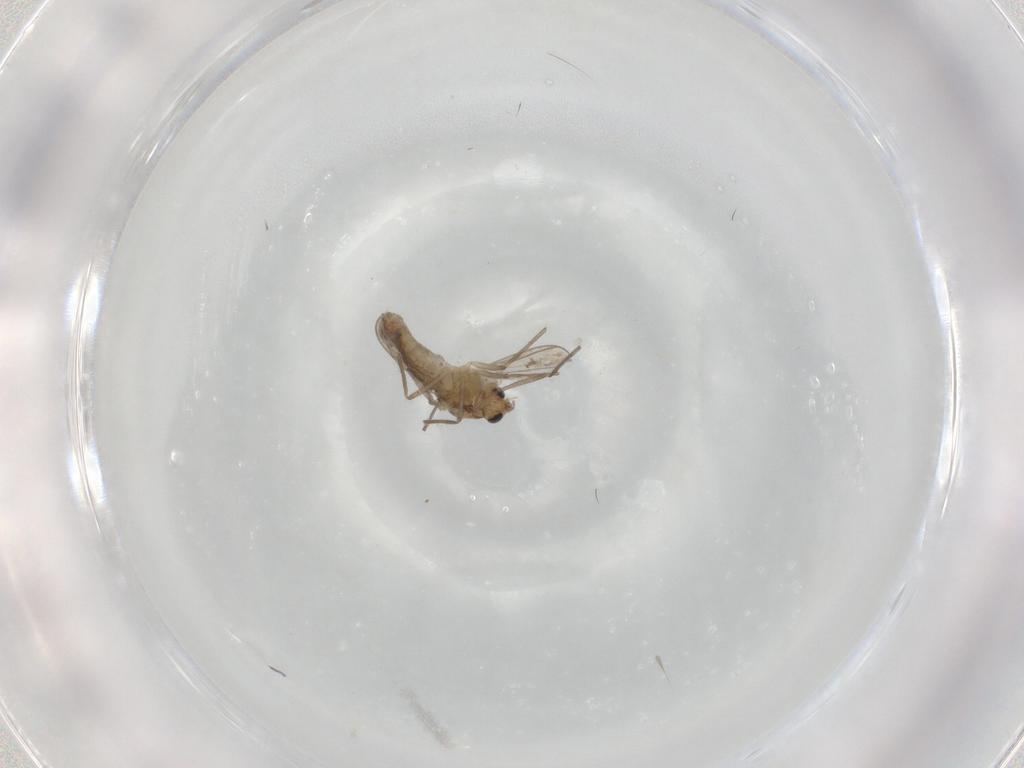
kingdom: Animalia
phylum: Arthropoda
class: Insecta
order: Diptera
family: Chironomidae
